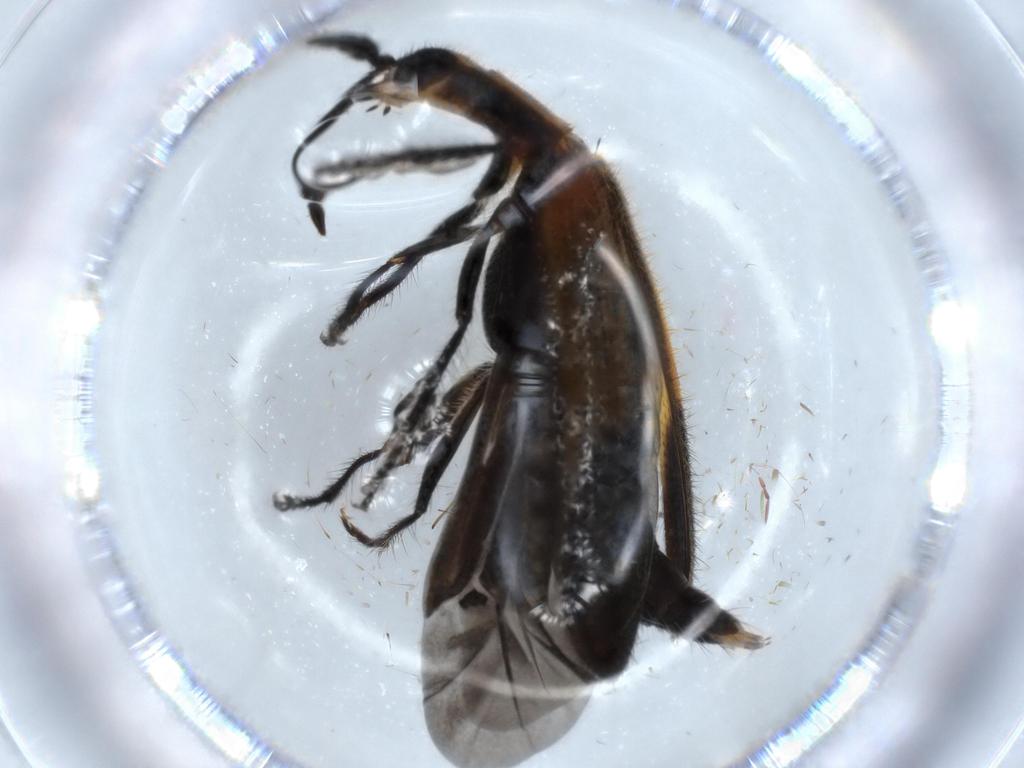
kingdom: Animalia
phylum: Arthropoda
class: Insecta
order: Coleoptera
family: Cleridae
